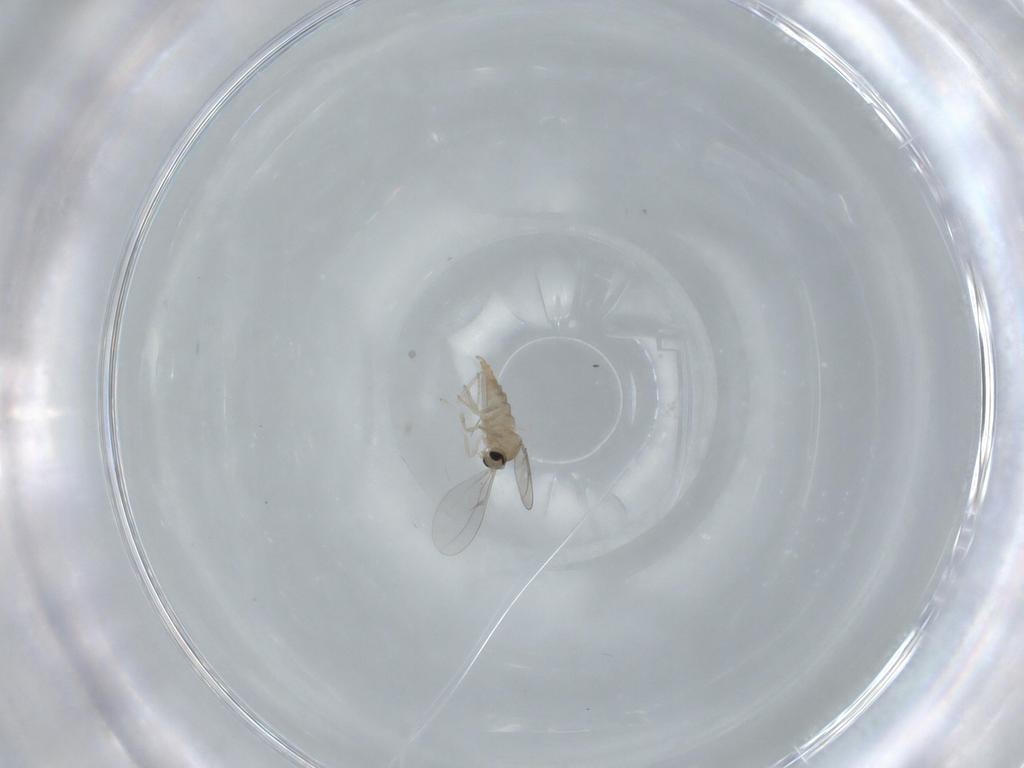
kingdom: Animalia
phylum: Arthropoda
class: Insecta
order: Diptera
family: Cecidomyiidae
